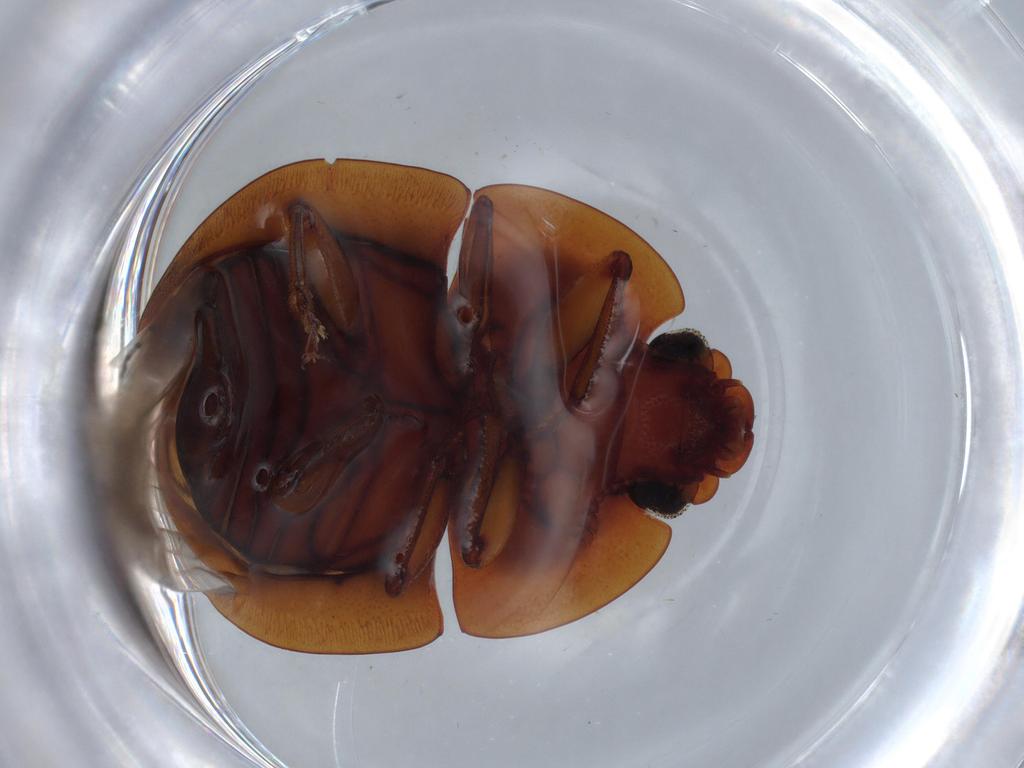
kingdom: Animalia
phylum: Arthropoda
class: Insecta
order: Coleoptera
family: Nitidulidae
